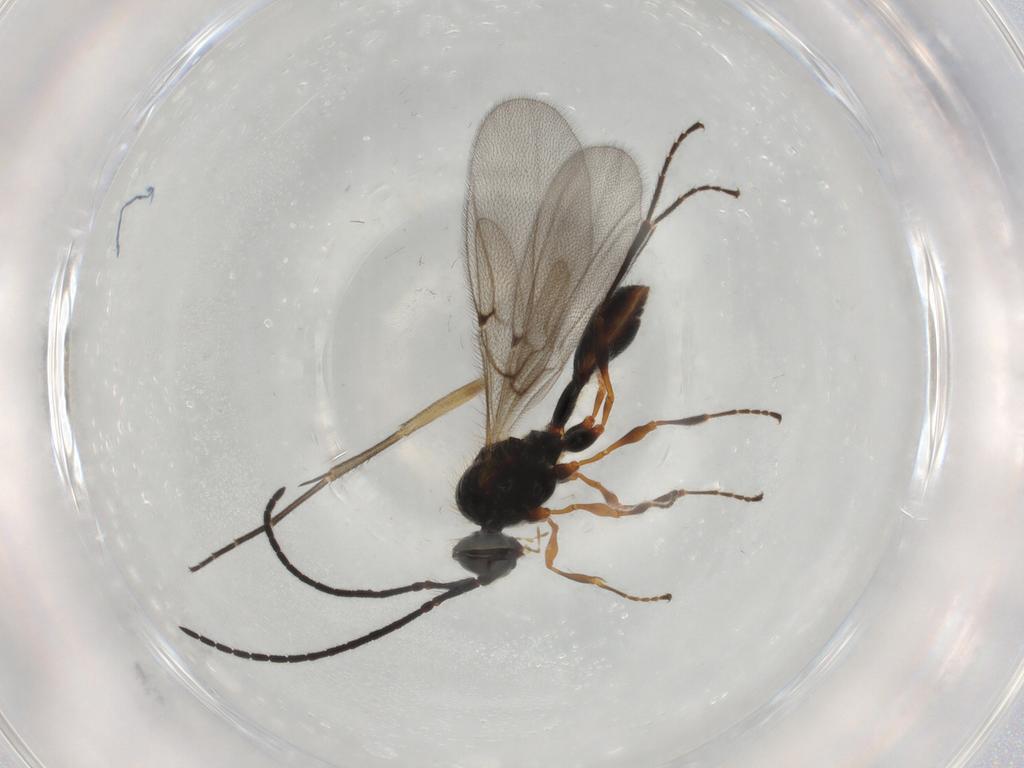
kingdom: Animalia
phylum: Arthropoda
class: Insecta
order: Hymenoptera
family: Diapriidae
